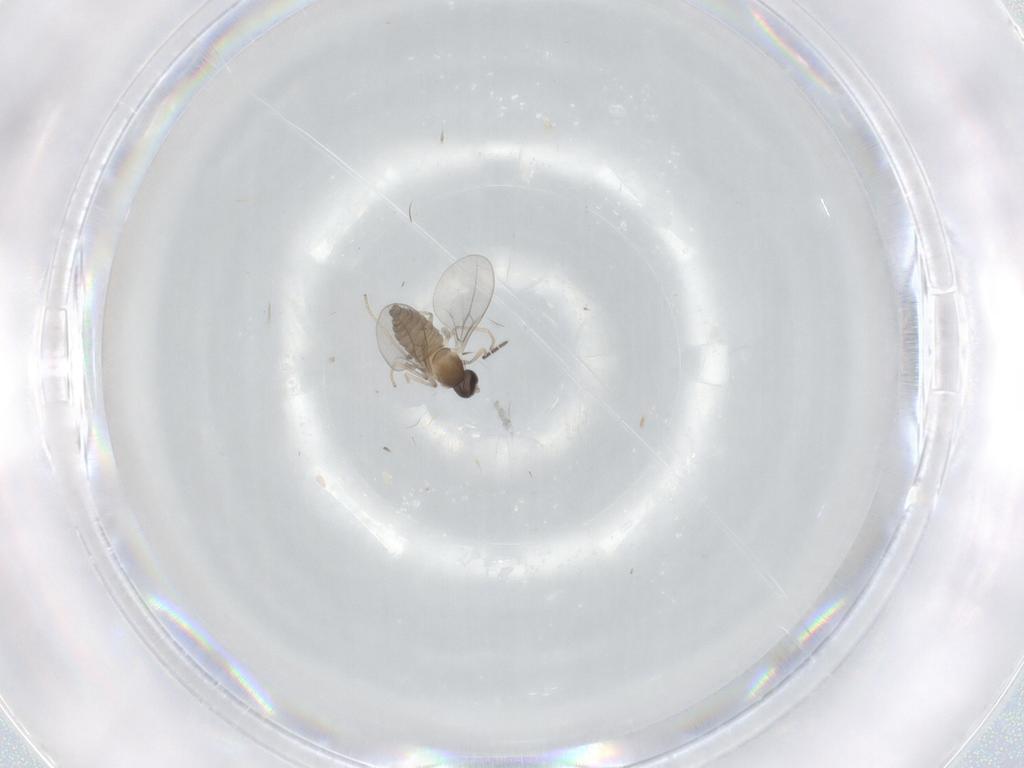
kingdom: Animalia
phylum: Arthropoda
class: Insecta
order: Diptera
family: Cecidomyiidae
